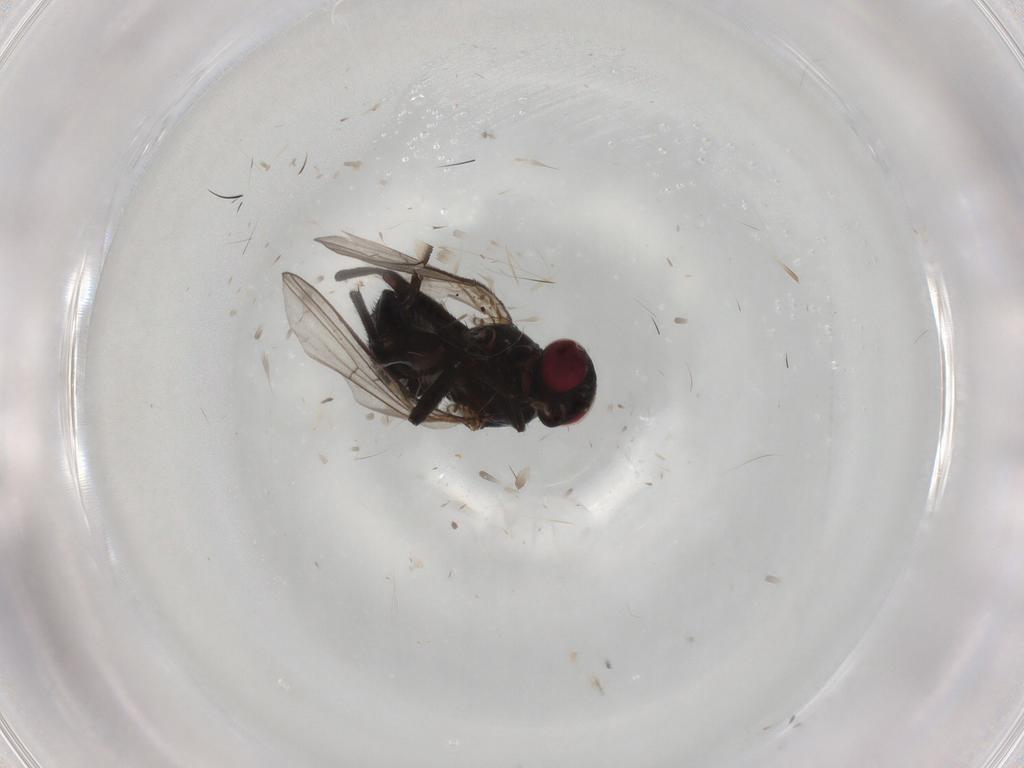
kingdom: Animalia
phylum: Arthropoda
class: Insecta
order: Diptera
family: Agromyzidae
